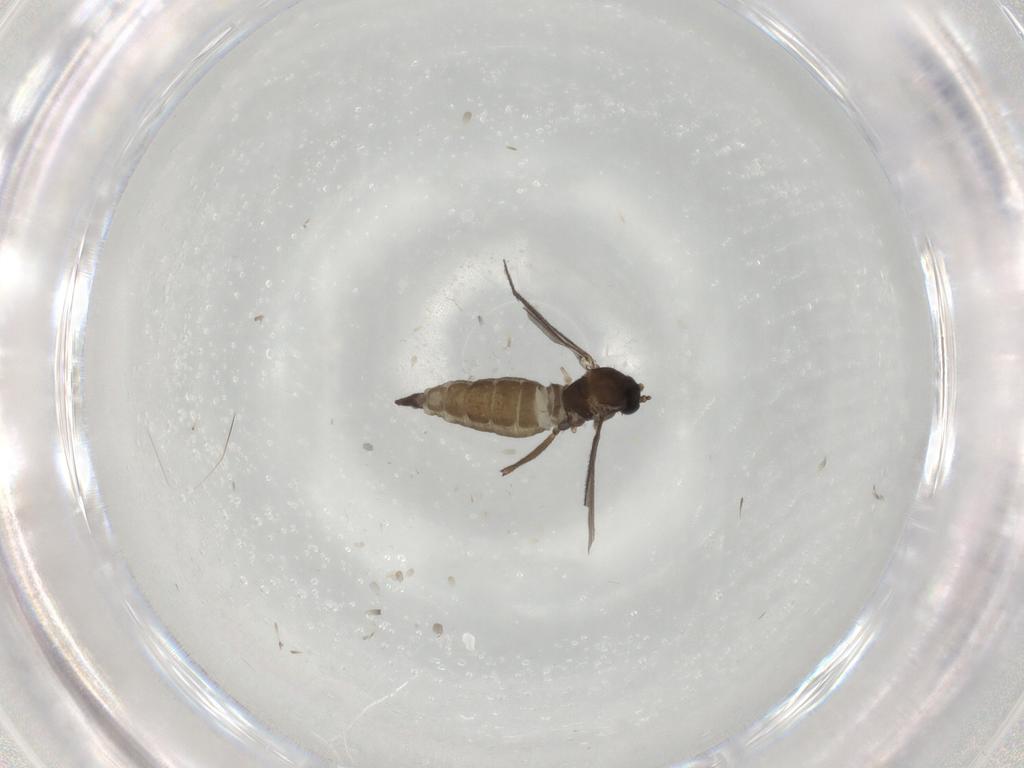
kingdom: Animalia
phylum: Arthropoda
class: Insecta
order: Diptera
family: Sciaridae
